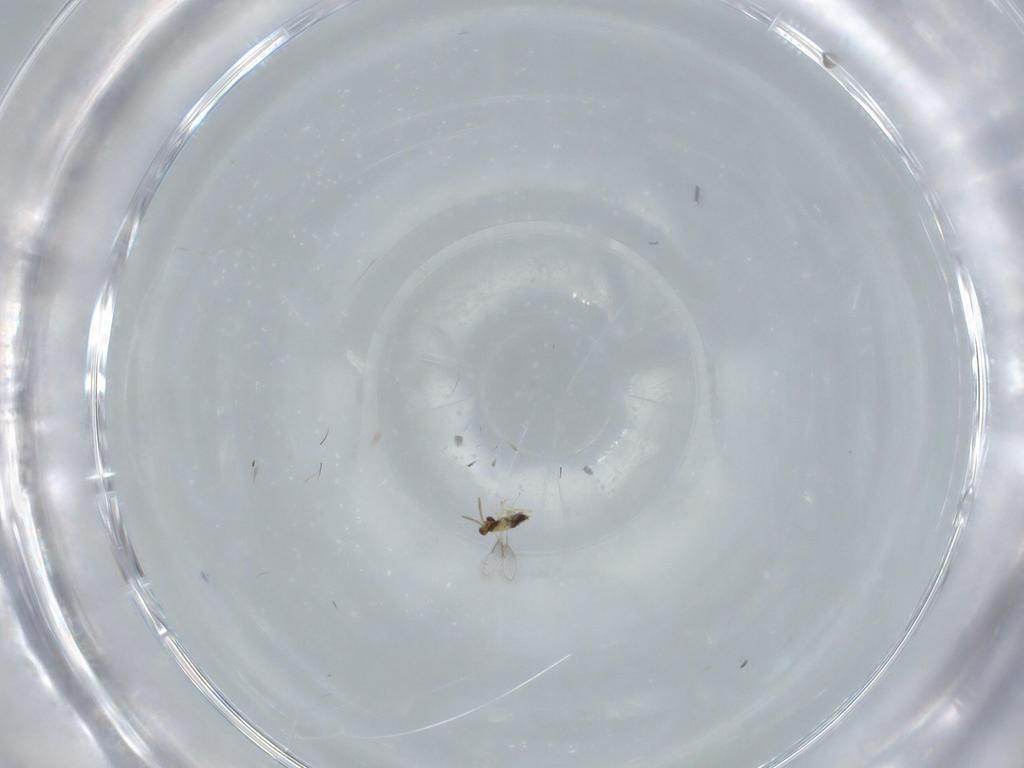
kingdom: Animalia
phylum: Arthropoda
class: Insecta
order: Hymenoptera
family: Aphelinidae
